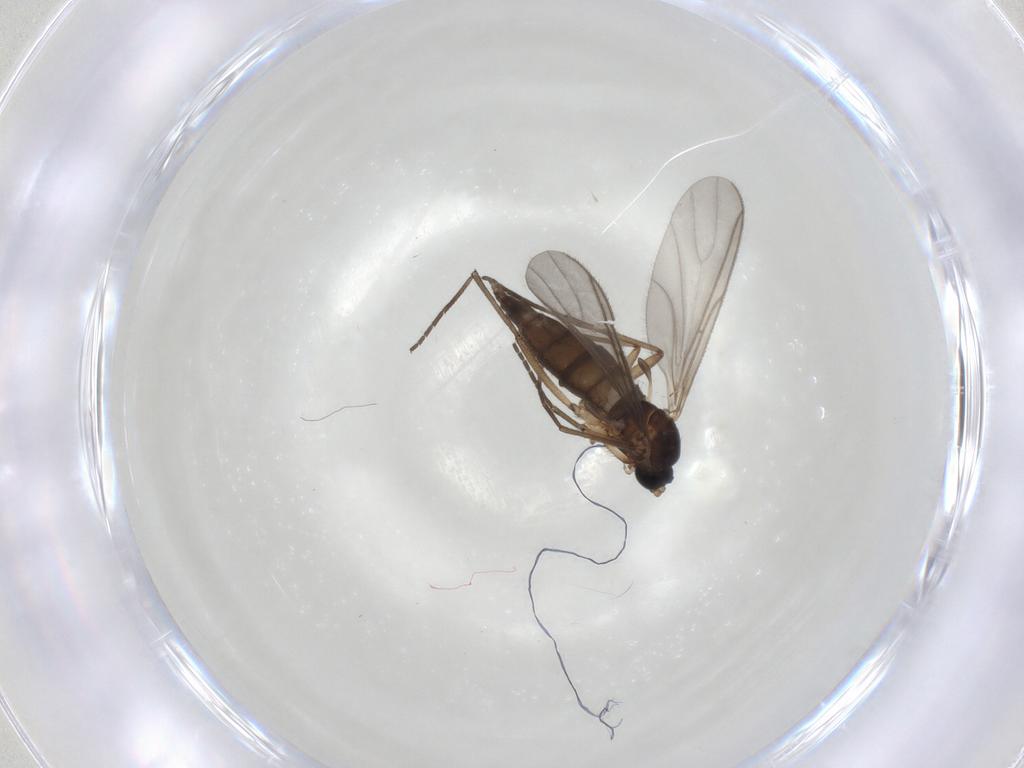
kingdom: Animalia
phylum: Arthropoda
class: Insecta
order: Diptera
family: Sciaridae
